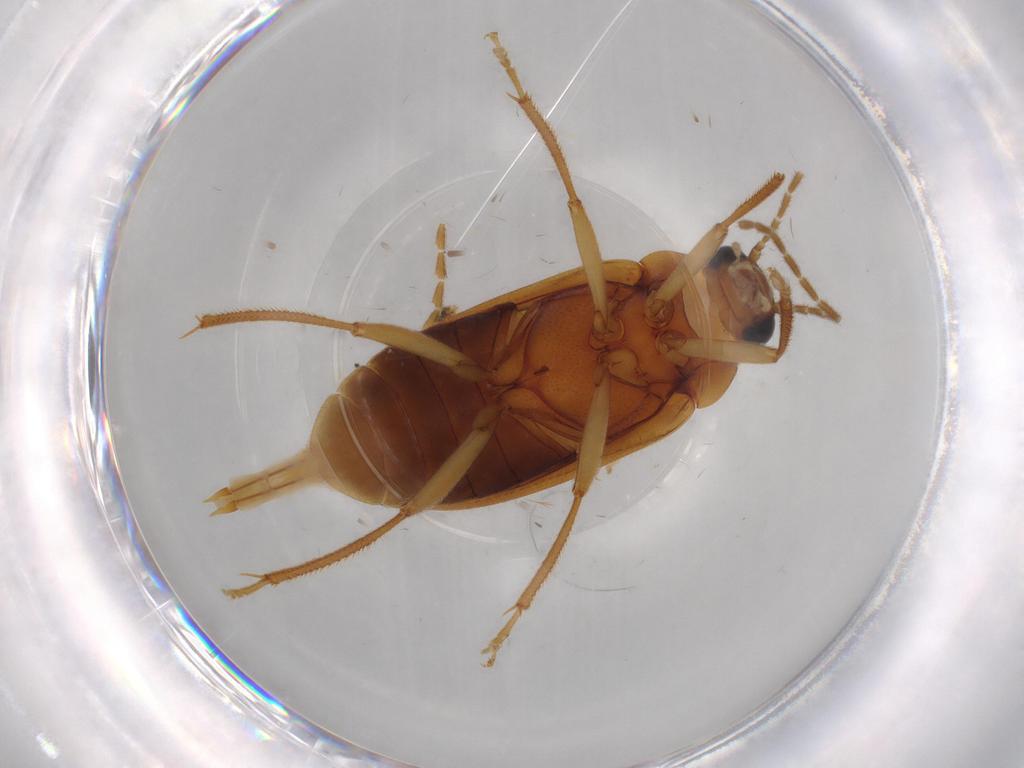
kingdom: Animalia
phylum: Arthropoda
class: Insecta
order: Coleoptera
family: Ptilodactylidae
